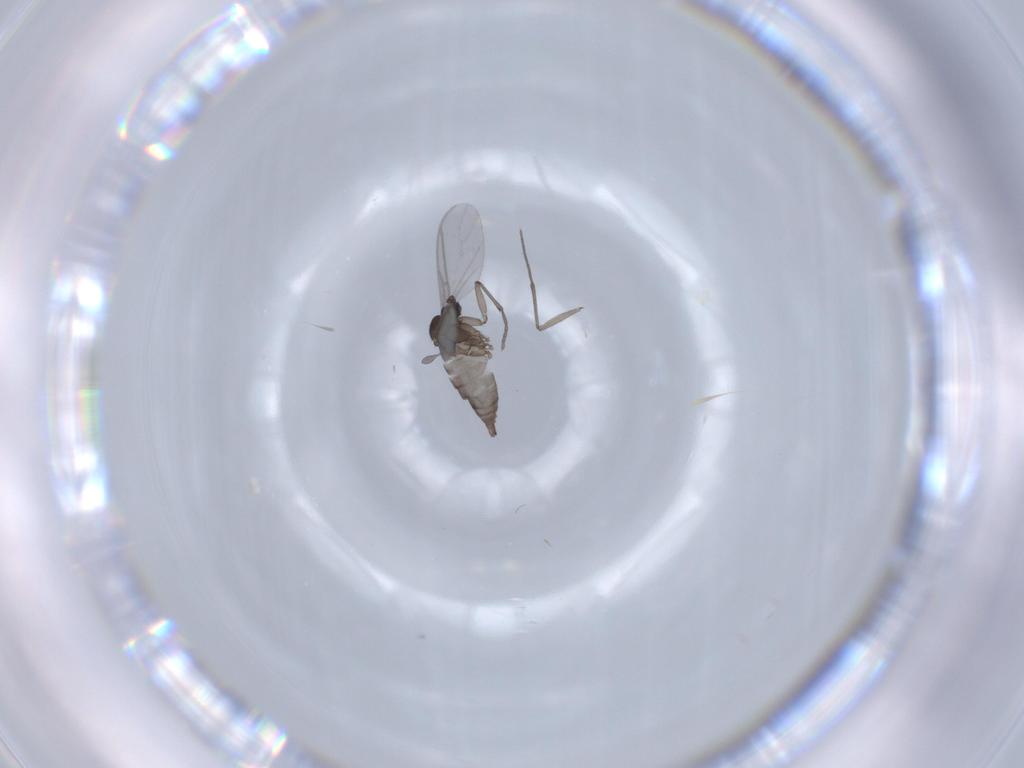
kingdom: Animalia
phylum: Arthropoda
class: Insecta
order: Diptera
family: Sciaridae
